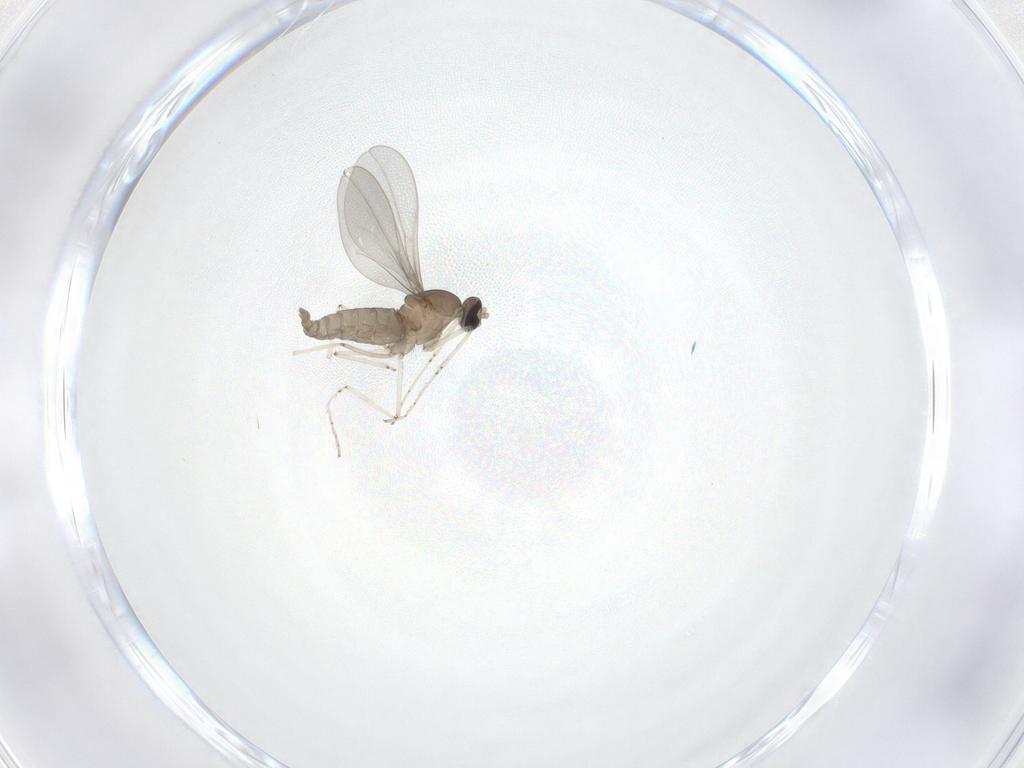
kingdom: Animalia
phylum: Arthropoda
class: Insecta
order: Diptera
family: Cecidomyiidae
